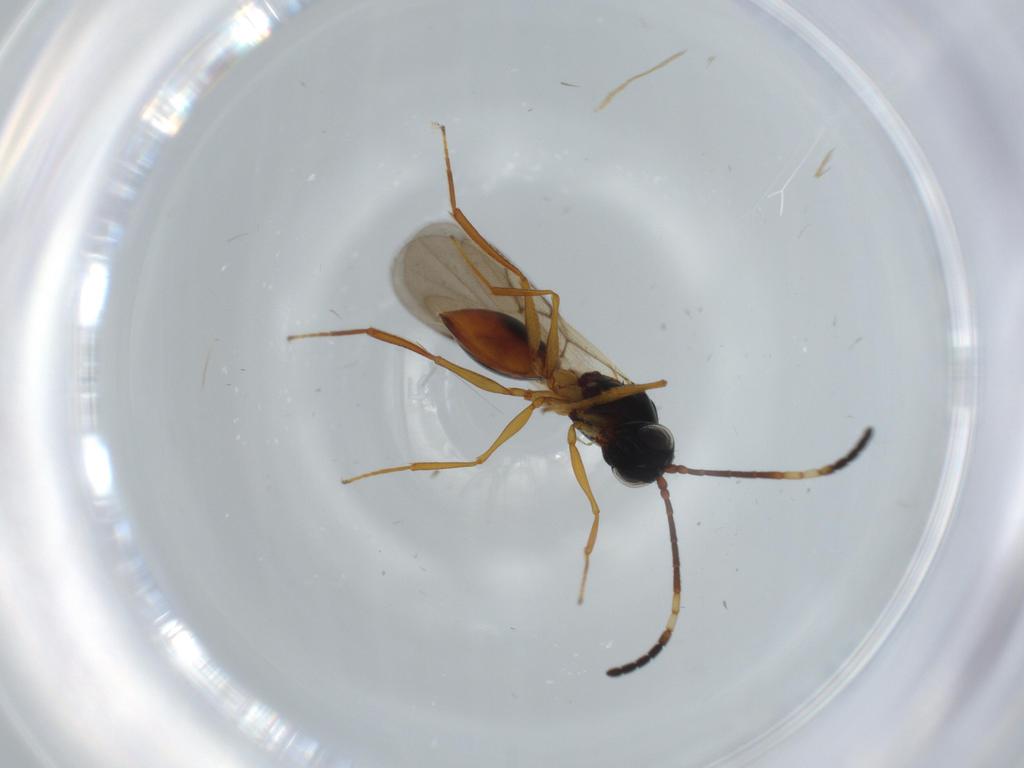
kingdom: Animalia
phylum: Arthropoda
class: Insecta
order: Hymenoptera
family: Figitidae
